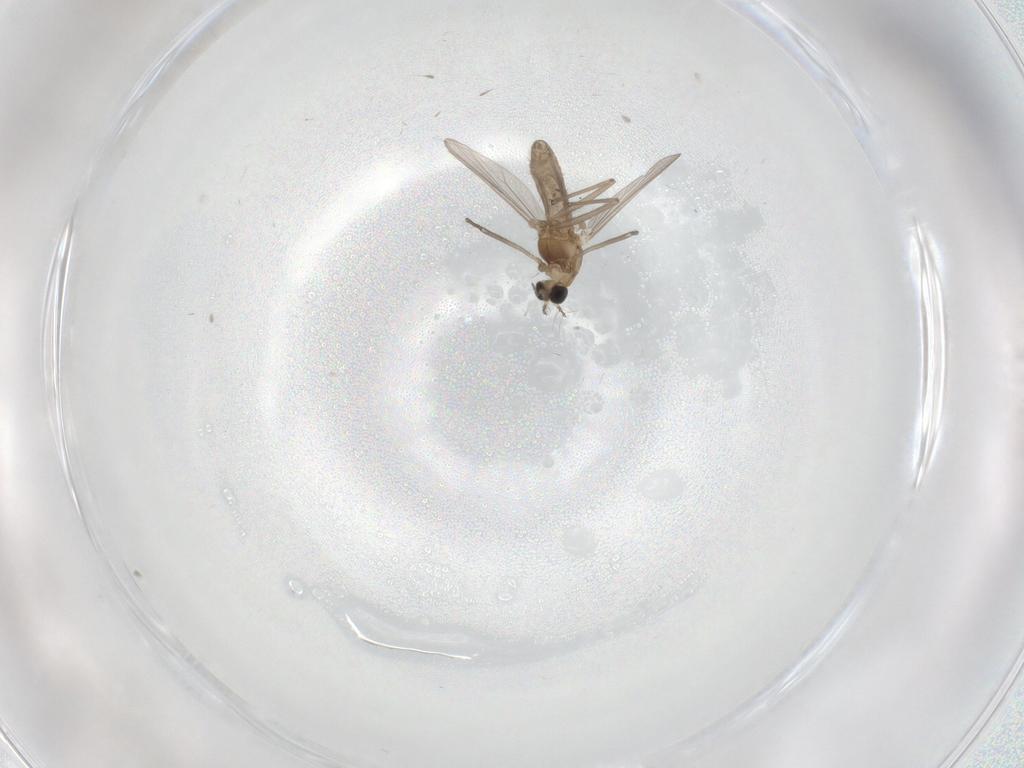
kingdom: Animalia
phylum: Arthropoda
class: Insecta
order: Diptera
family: Chironomidae
